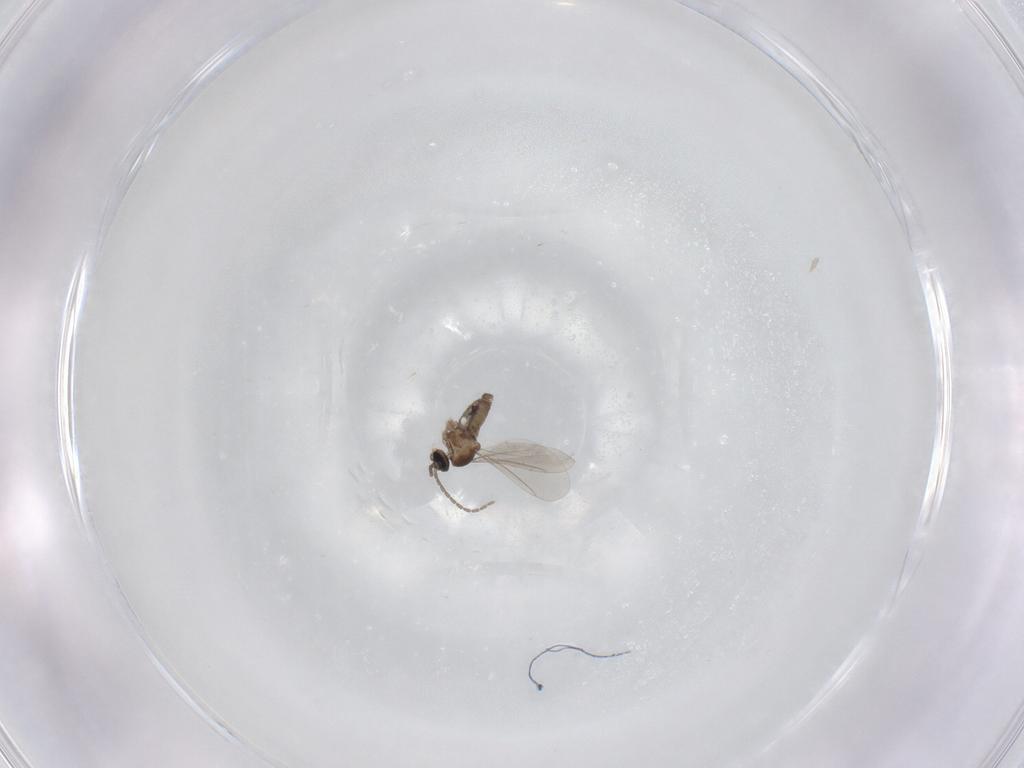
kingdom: Animalia
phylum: Arthropoda
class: Insecta
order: Diptera
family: Cecidomyiidae
